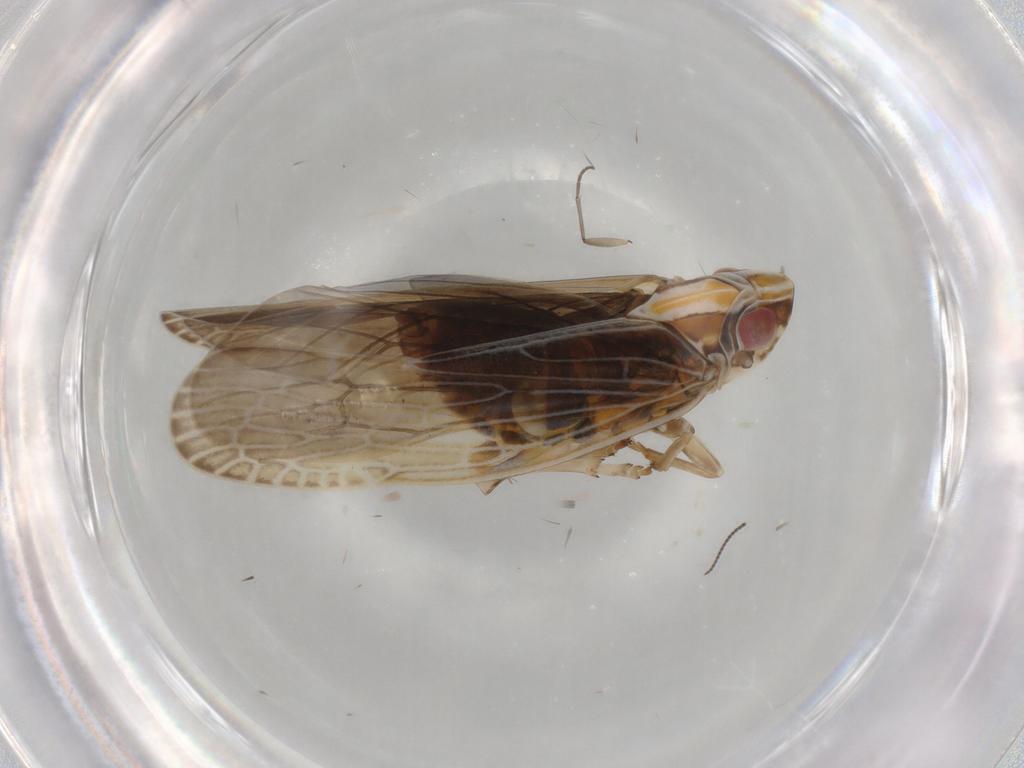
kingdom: Animalia
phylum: Arthropoda
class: Insecta
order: Hemiptera
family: Achilidae
